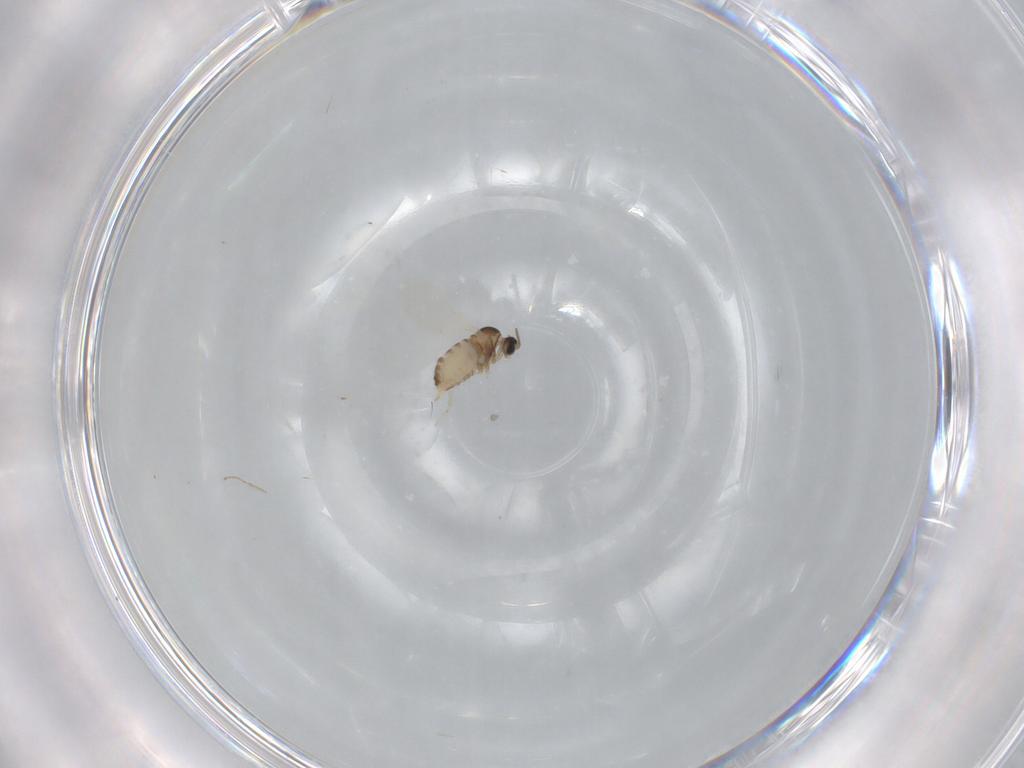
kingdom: Animalia
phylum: Arthropoda
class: Insecta
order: Diptera
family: Cecidomyiidae
